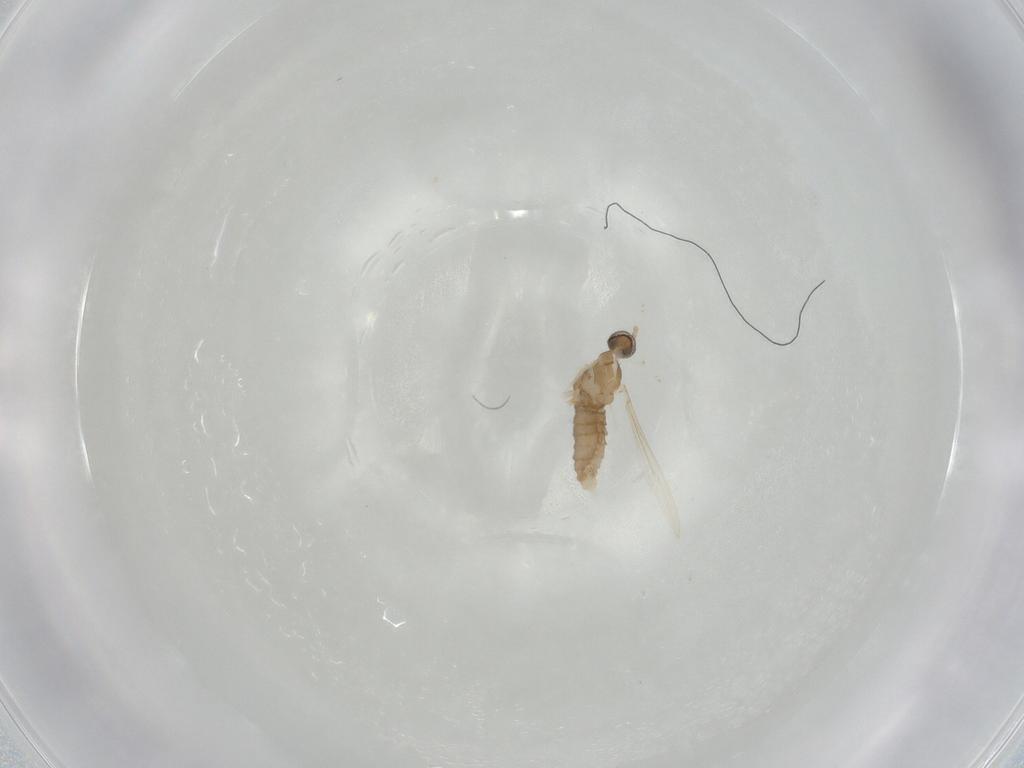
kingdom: Animalia
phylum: Arthropoda
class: Insecta
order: Diptera
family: Cecidomyiidae
